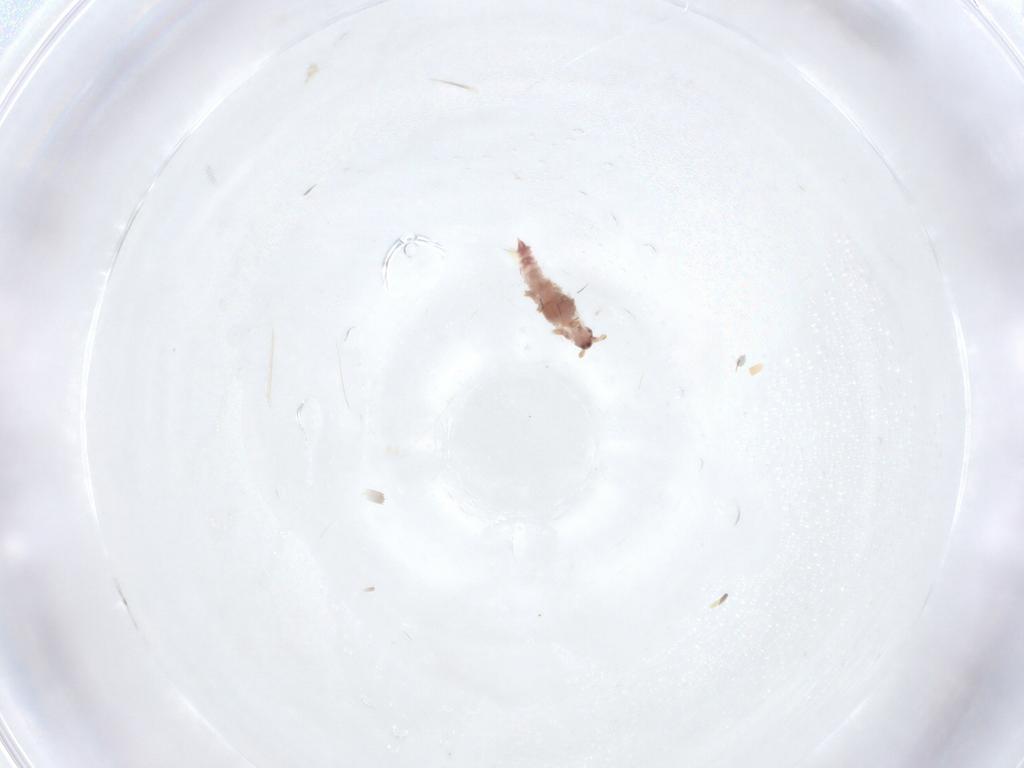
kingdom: Animalia
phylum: Arthropoda
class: Insecta
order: Hemiptera
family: Pseudococcidae
